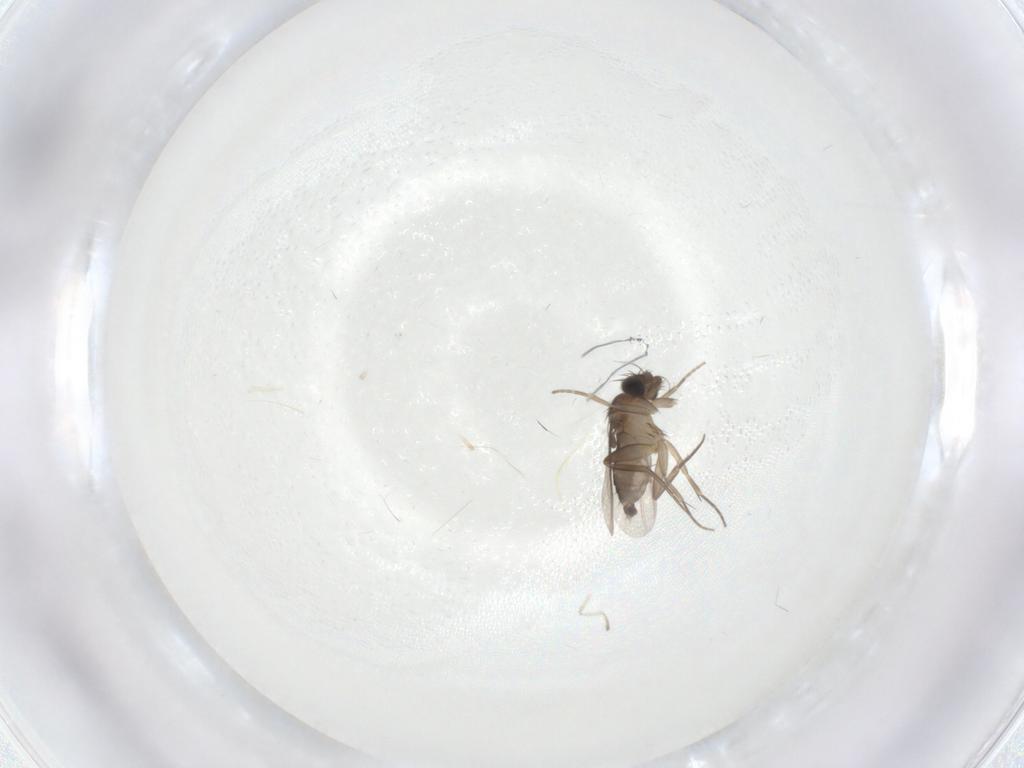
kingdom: Animalia
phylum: Arthropoda
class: Insecta
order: Diptera
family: Phoridae
